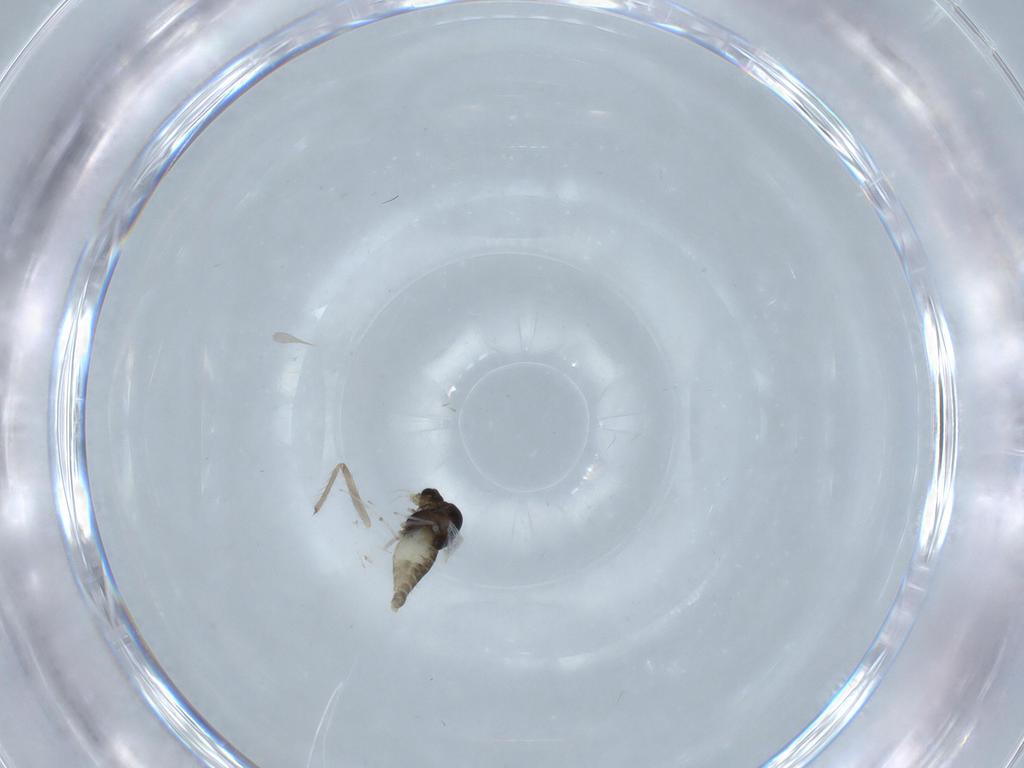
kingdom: Animalia
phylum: Arthropoda
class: Insecta
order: Diptera
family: Chironomidae
